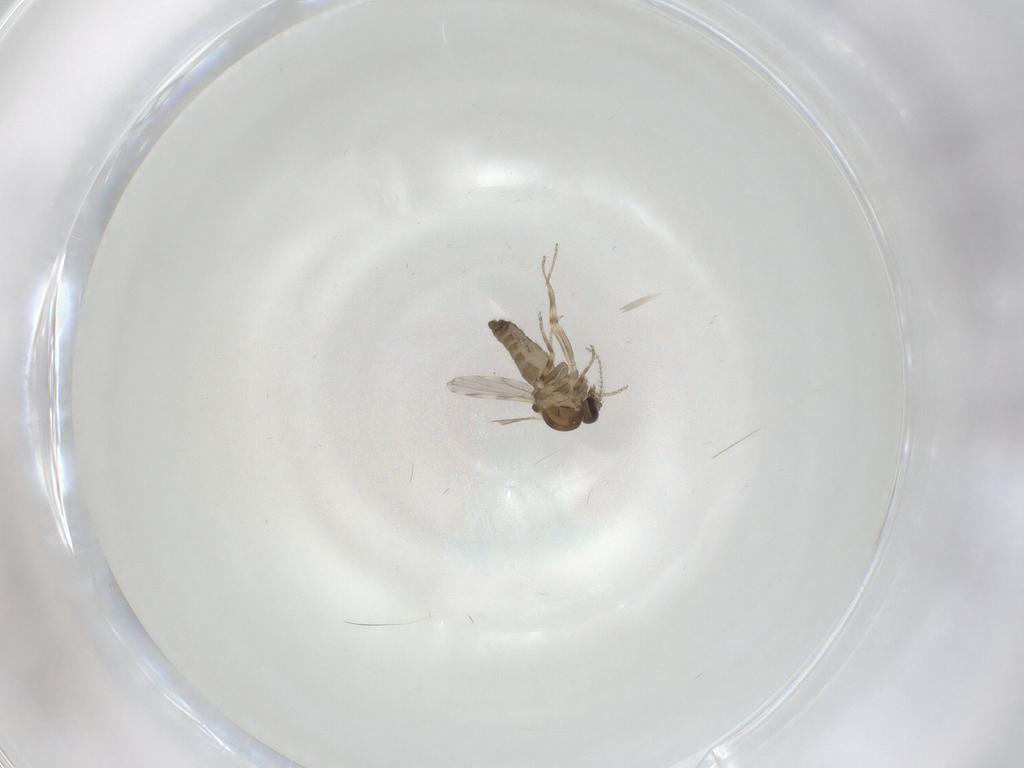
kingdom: Animalia
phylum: Arthropoda
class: Insecta
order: Diptera
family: Ceratopogonidae
